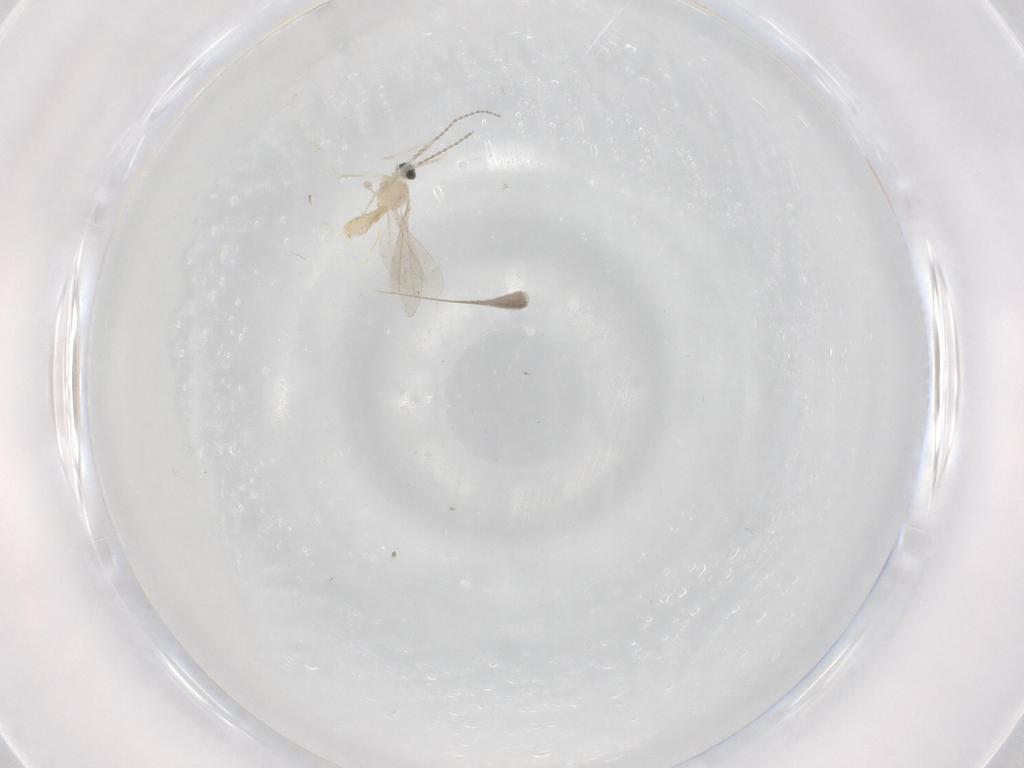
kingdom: Animalia
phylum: Arthropoda
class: Insecta
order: Diptera
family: Cecidomyiidae
